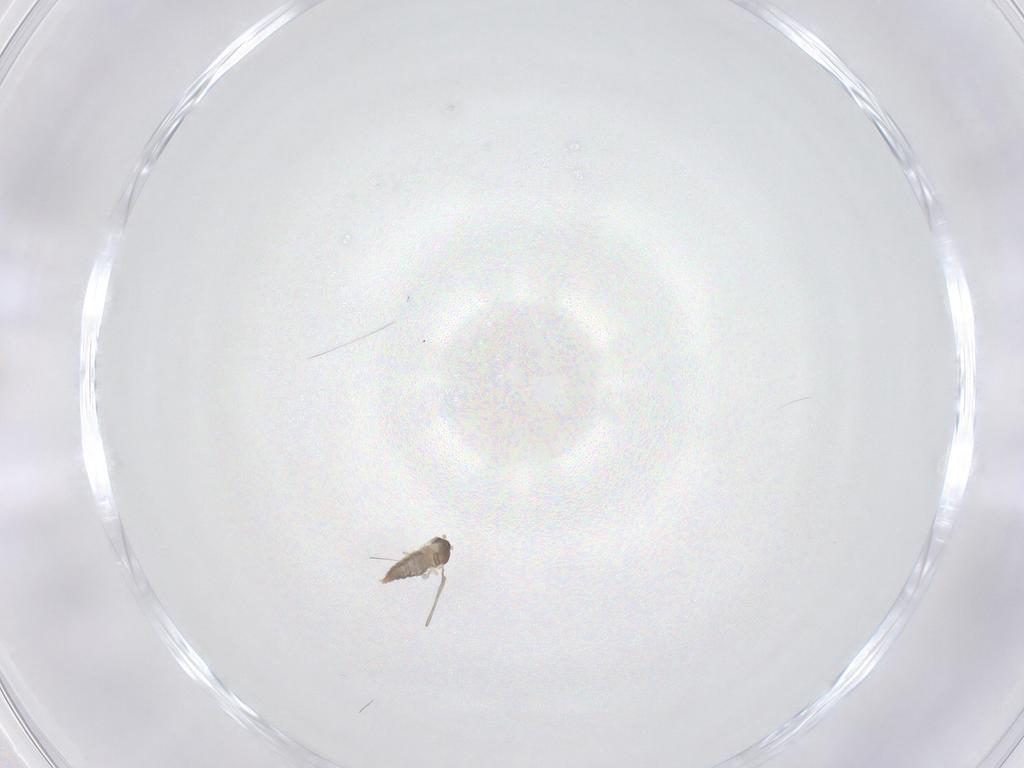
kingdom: Animalia
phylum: Arthropoda
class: Insecta
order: Diptera
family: Cecidomyiidae
